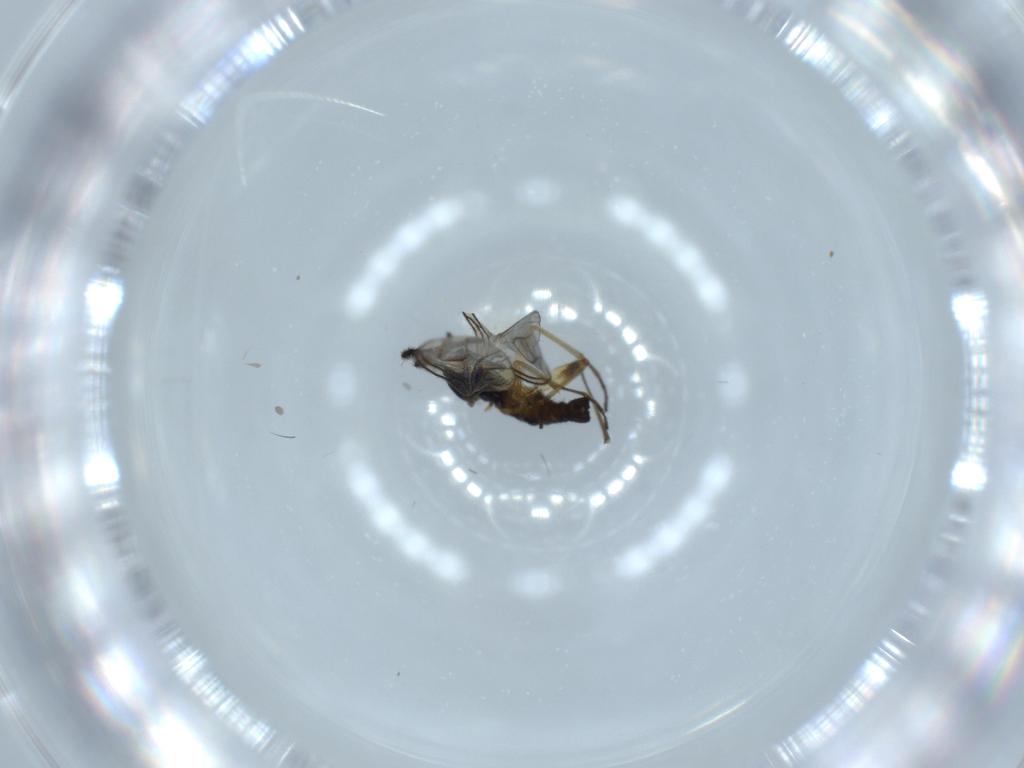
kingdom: Animalia
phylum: Arthropoda
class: Insecta
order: Diptera
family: Sciaridae
